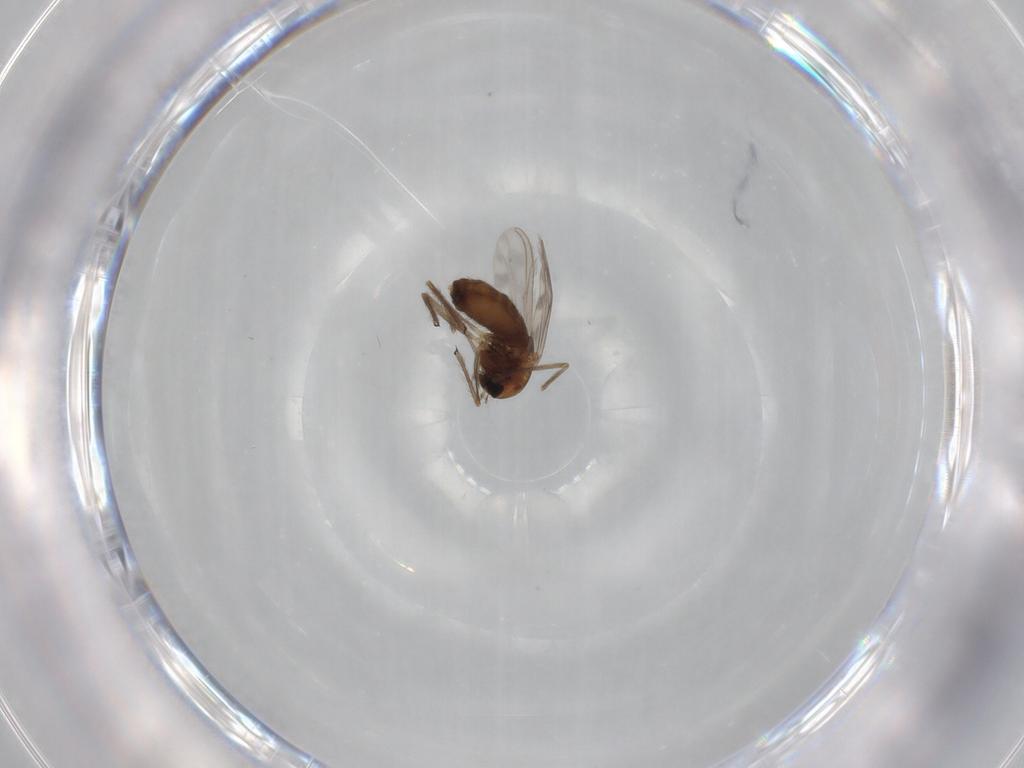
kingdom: Animalia
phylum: Arthropoda
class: Insecta
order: Diptera
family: Chironomidae
